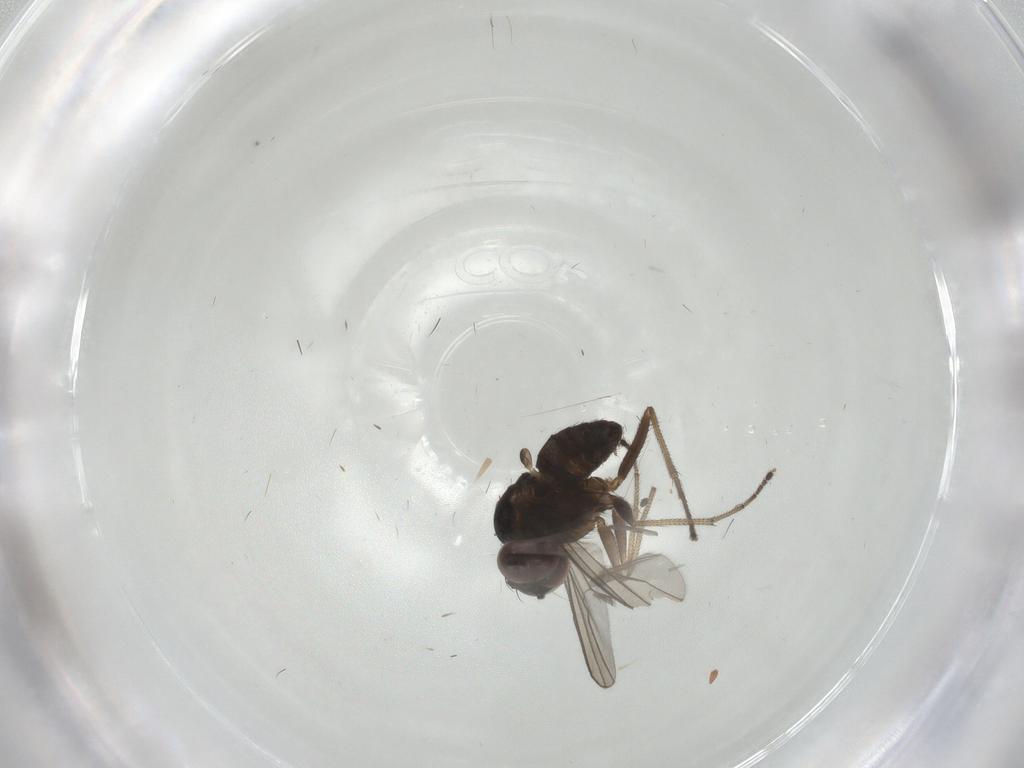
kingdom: Animalia
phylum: Arthropoda
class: Insecta
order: Diptera
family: Dolichopodidae
